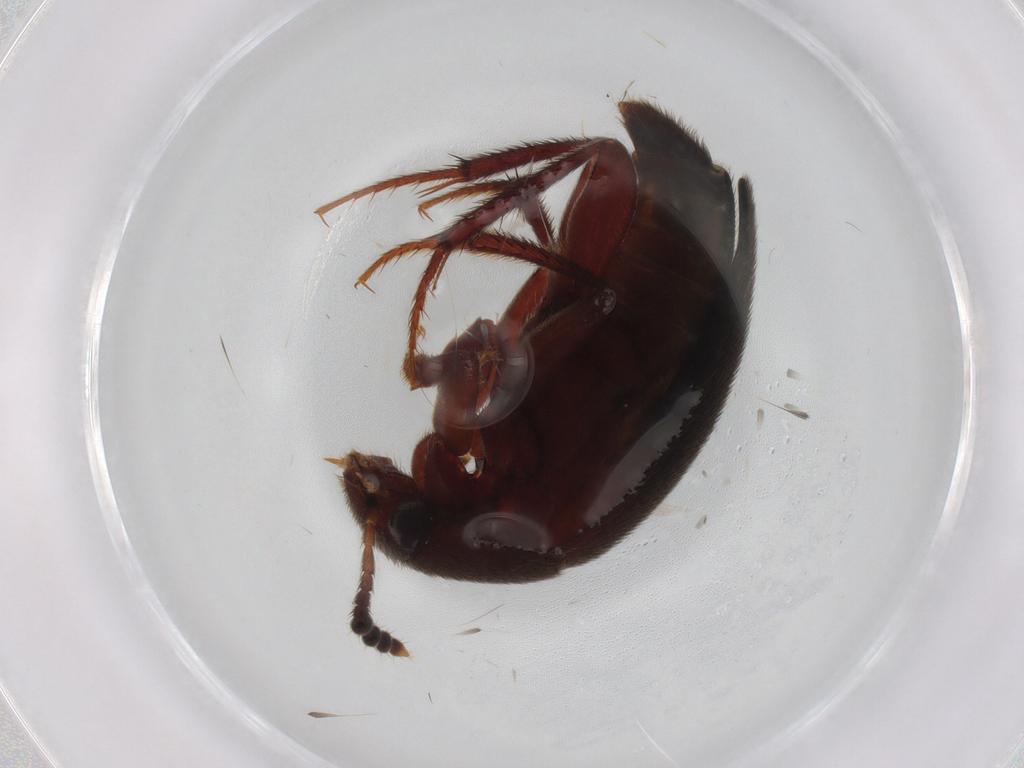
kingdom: Animalia
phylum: Arthropoda
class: Insecta
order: Coleoptera
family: Leiodidae
